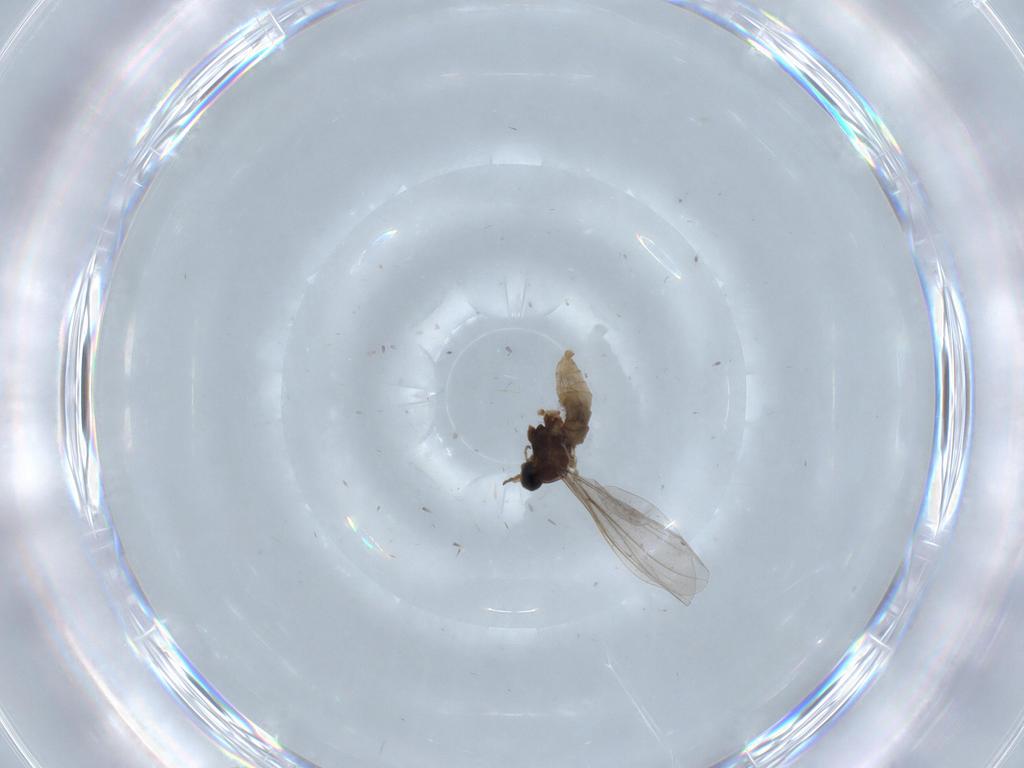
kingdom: Animalia
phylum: Arthropoda
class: Insecta
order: Diptera
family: Cecidomyiidae
